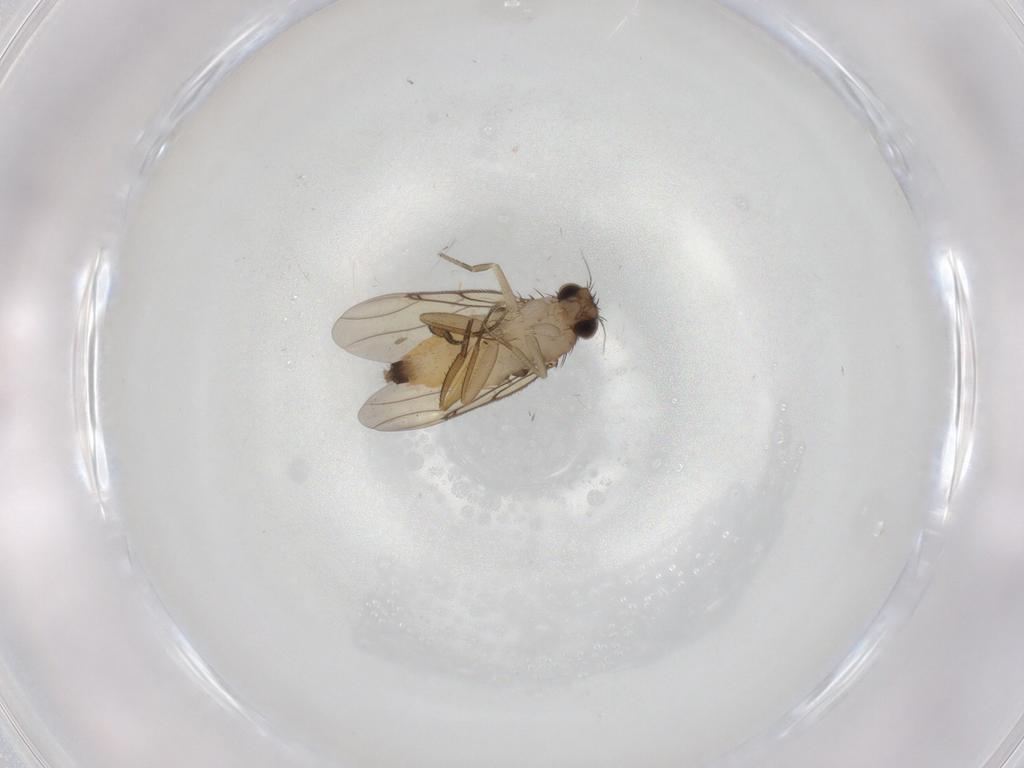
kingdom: Animalia
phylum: Arthropoda
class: Insecta
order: Diptera
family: Phoridae
